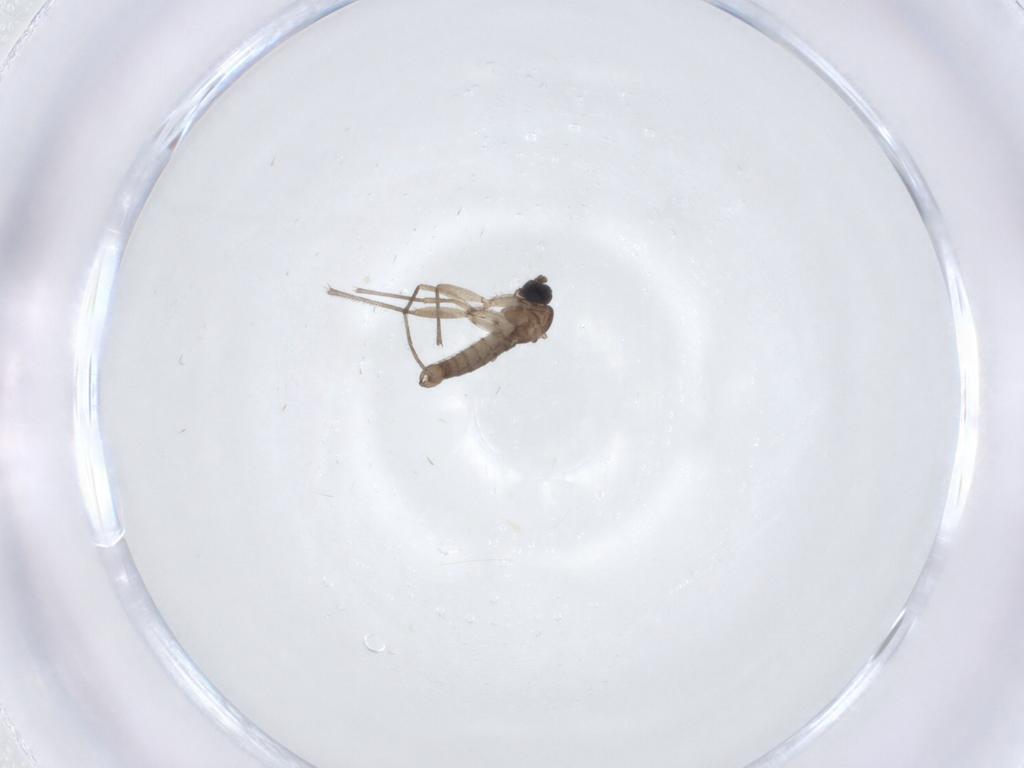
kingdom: Animalia
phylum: Arthropoda
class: Insecta
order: Diptera
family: Sciaridae
